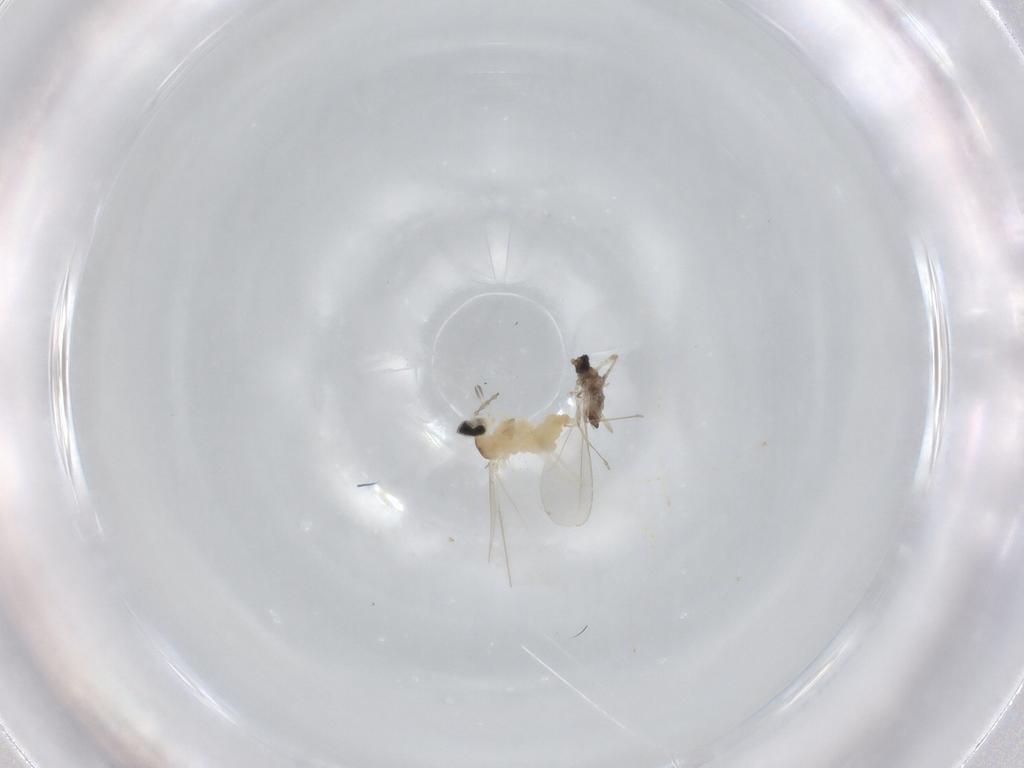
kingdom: Animalia
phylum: Arthropoda
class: Insecta
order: Diptera
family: Cecidomyiidae
